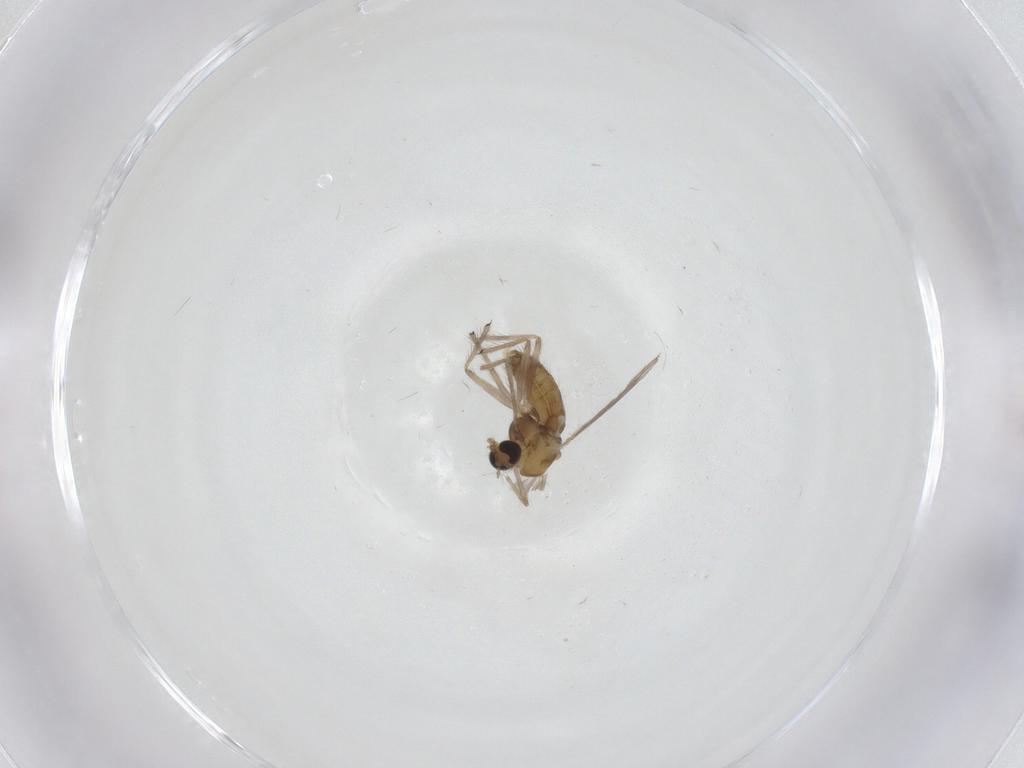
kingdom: Animalia
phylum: Arthropoda
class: Insecta
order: Diptera
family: Chironomidae
